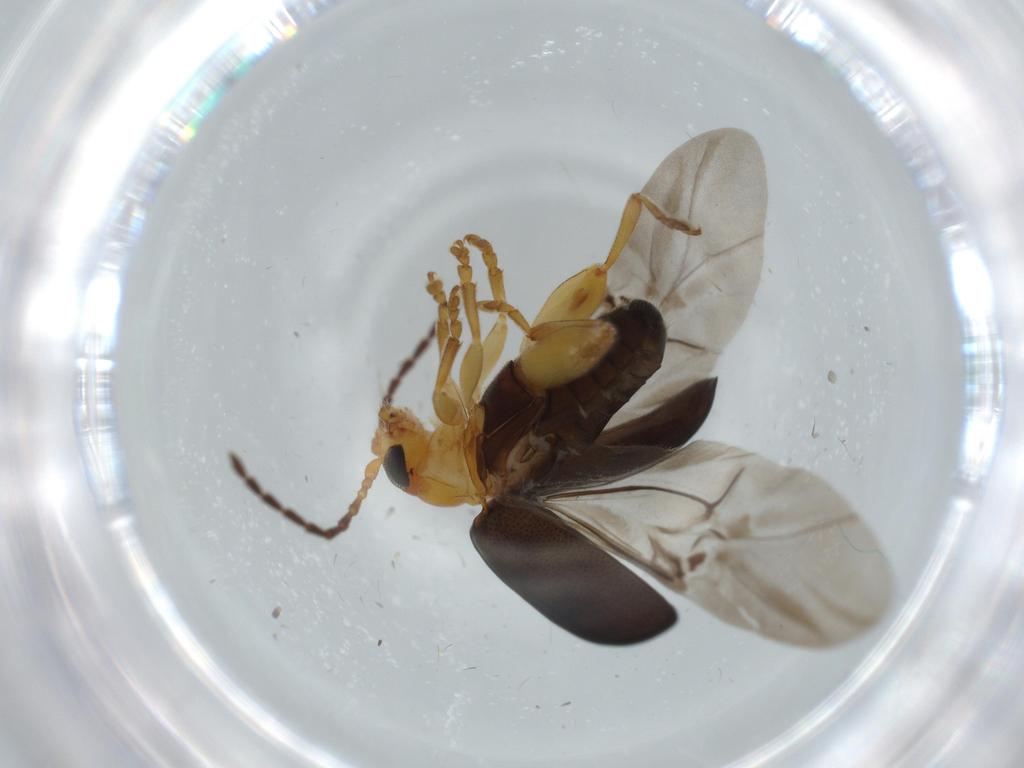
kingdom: Animalia
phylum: Arthropoda
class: Insecta
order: Coleoptera
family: Chrysomelidae
